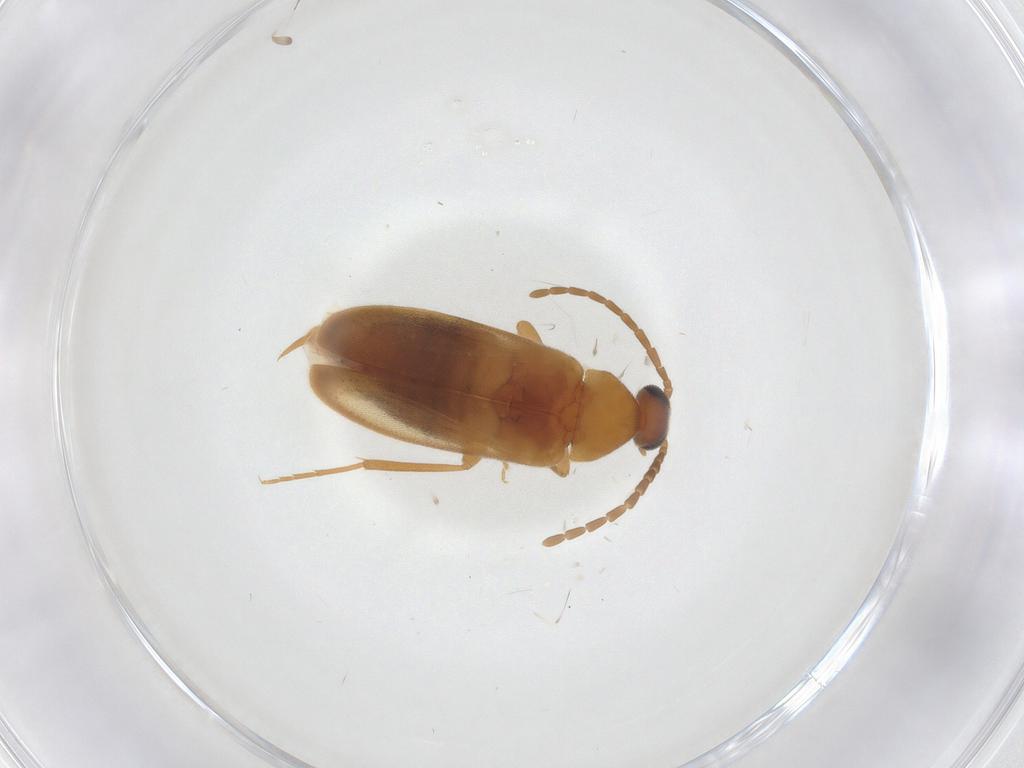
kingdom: Animalia
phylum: Arthropoda
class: Insecta
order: Coleoptera
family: Scraptiidae
